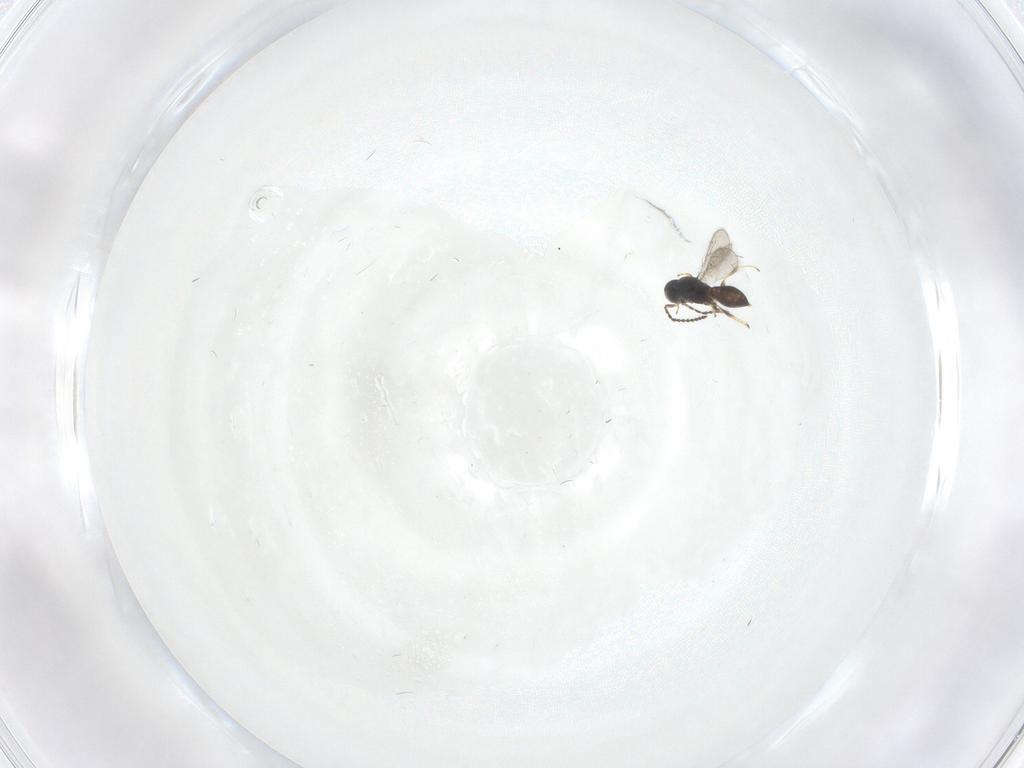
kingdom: Animalia
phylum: Arthropoda
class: Insecta
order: Hymenoptera
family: Scelionidae
